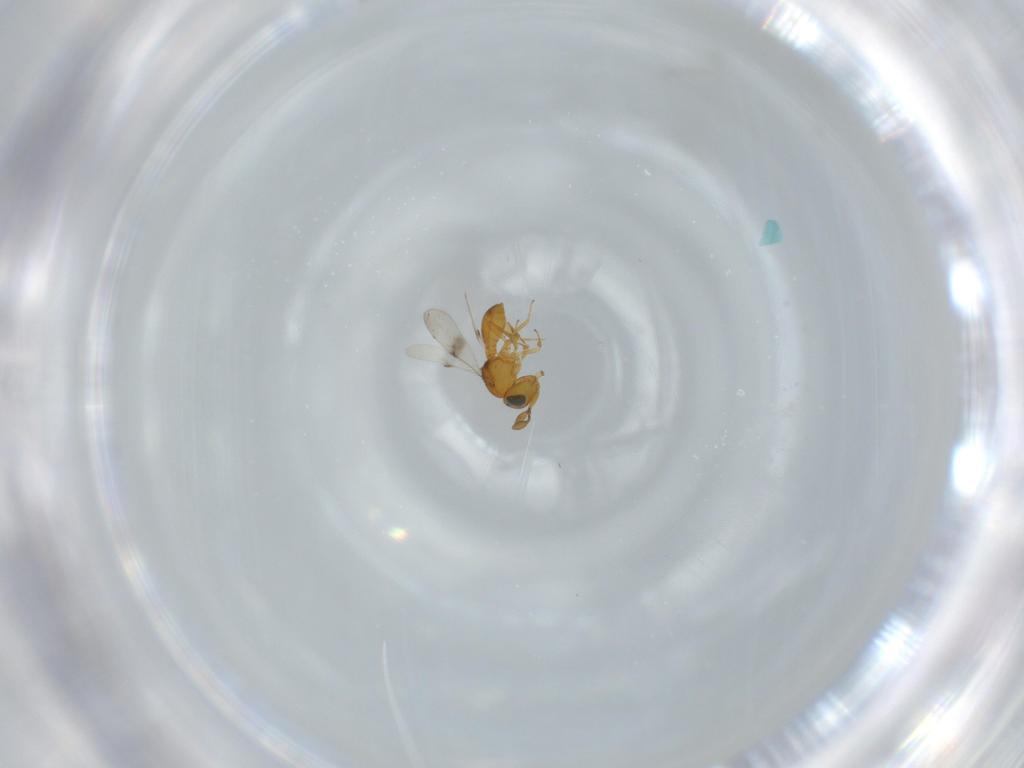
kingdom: Animalia
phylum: Arthropoda
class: Insecta
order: Hymenoptera
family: Scelionidae
